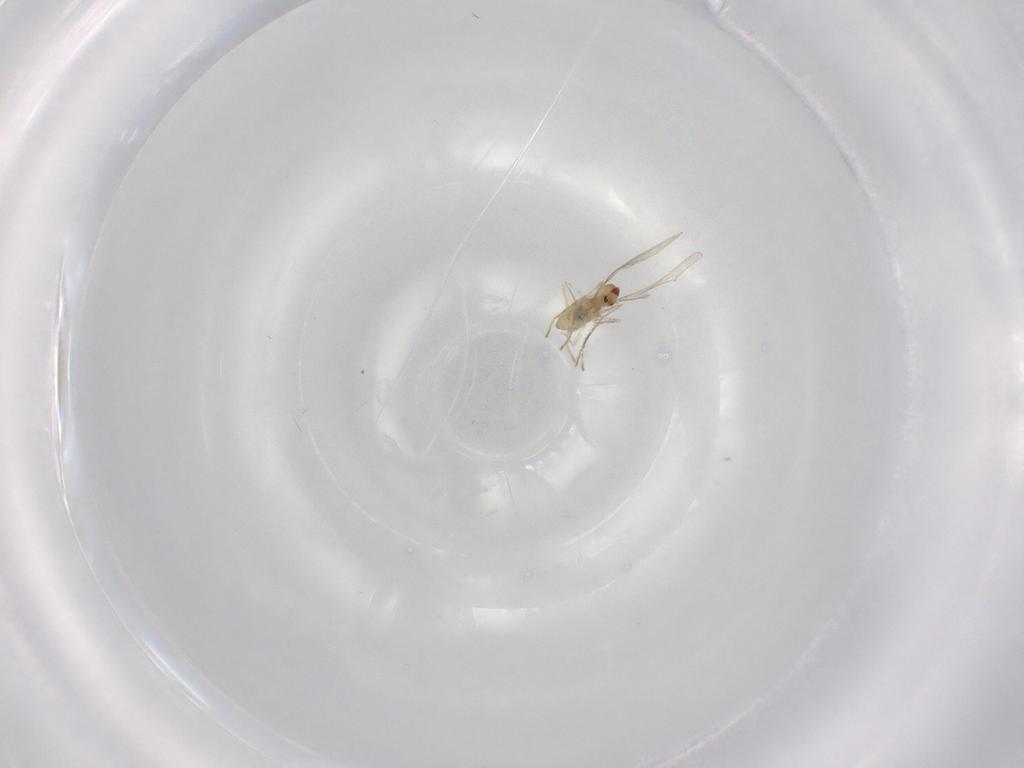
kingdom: Animalia
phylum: Arthropoda
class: Insecta
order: Diptera
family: Cecidomyiidae
